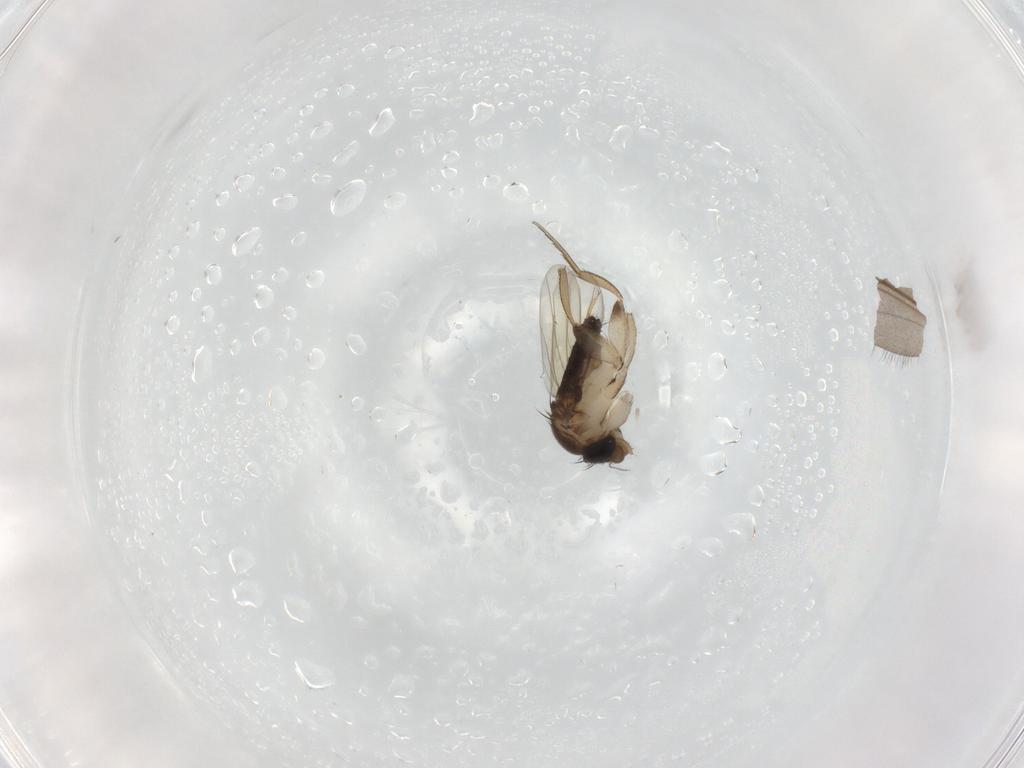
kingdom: Animalia
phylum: Arthropoda
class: Insecta
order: Diptera
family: Phoridae
